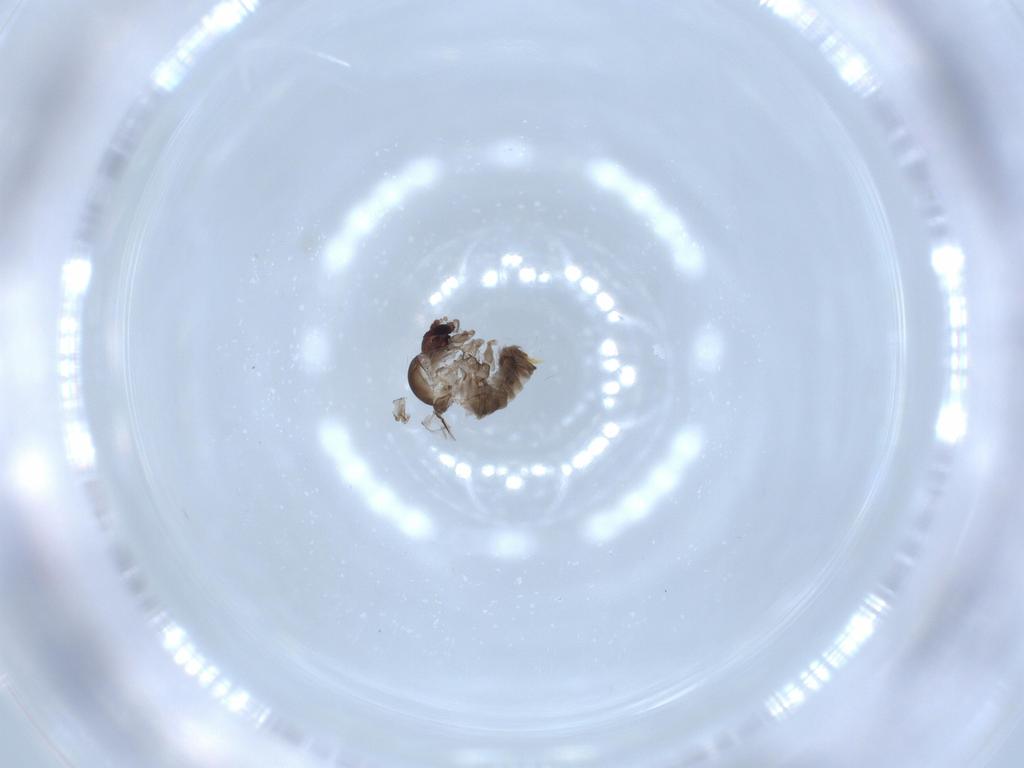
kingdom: Animalia
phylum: Arthropoda
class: Insecta
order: Diptera
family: Psychodidae
